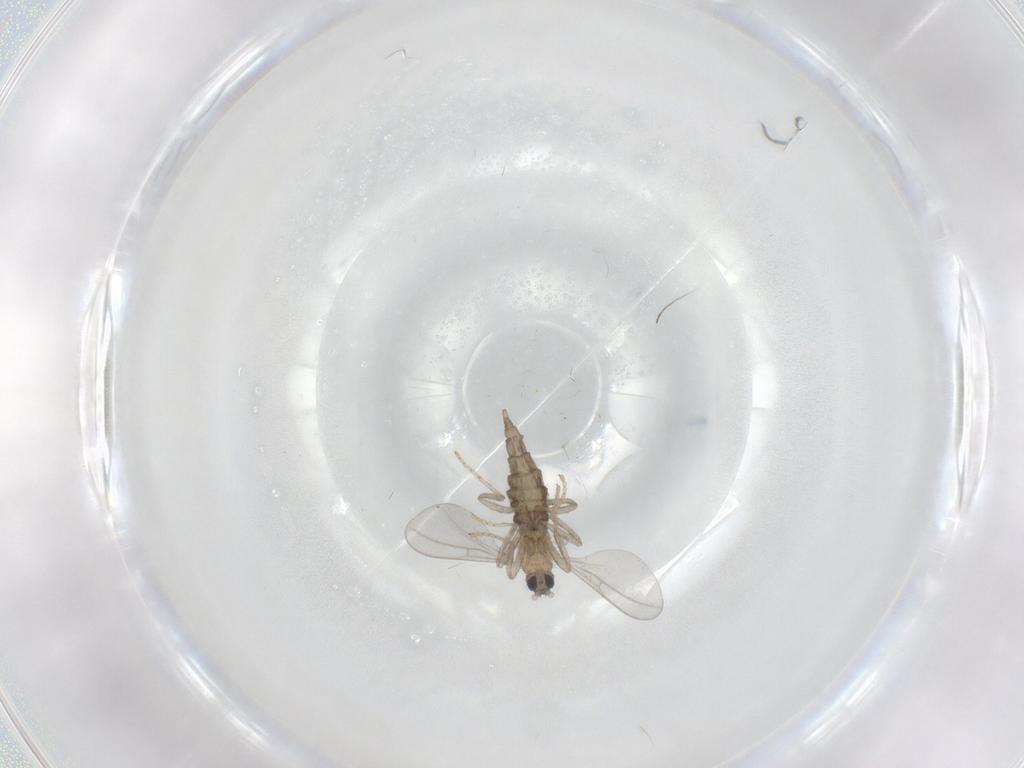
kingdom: Animalia
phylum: Arthropoda
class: Insecta
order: Diptera
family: Cecidomyiidae
